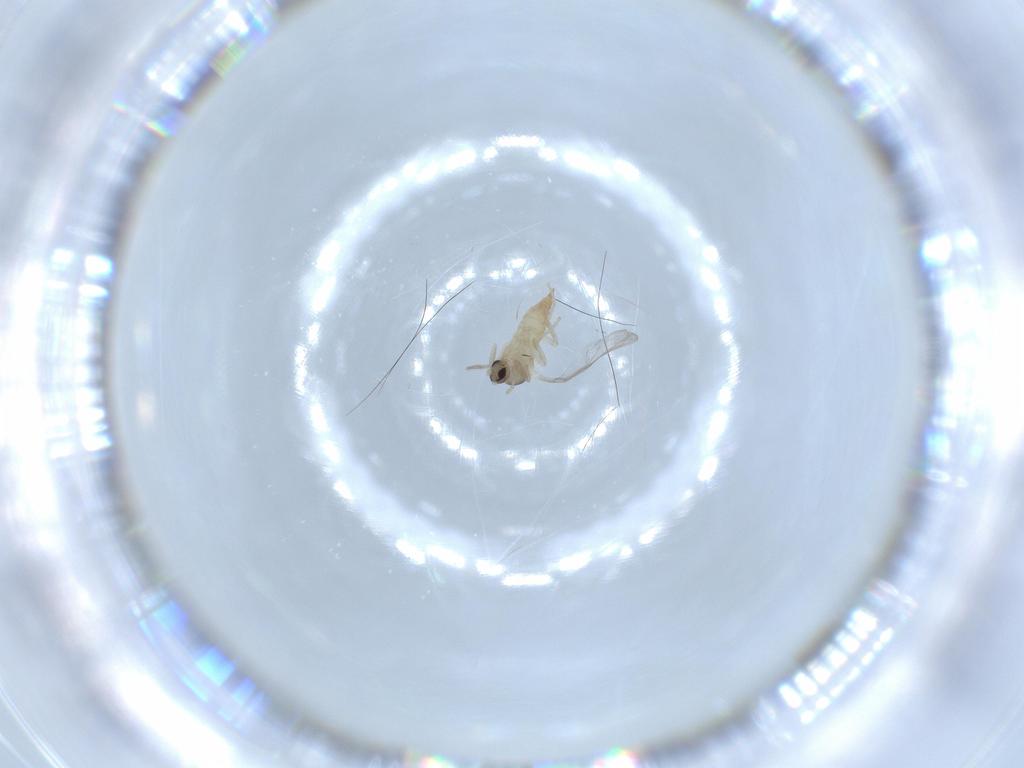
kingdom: Animalia
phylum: Arthropoda
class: Insecta
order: Diptera
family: Cecidomyiidae
